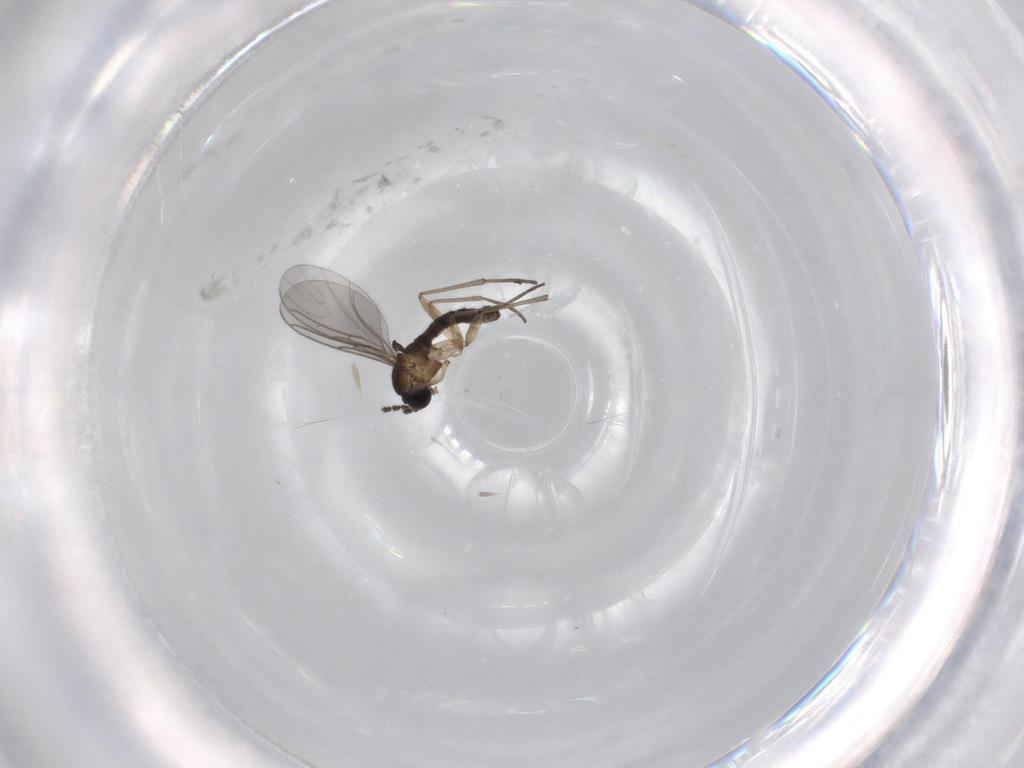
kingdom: Animalia
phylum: Arthropoda
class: Insecta
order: Diptera
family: Sciaridae
